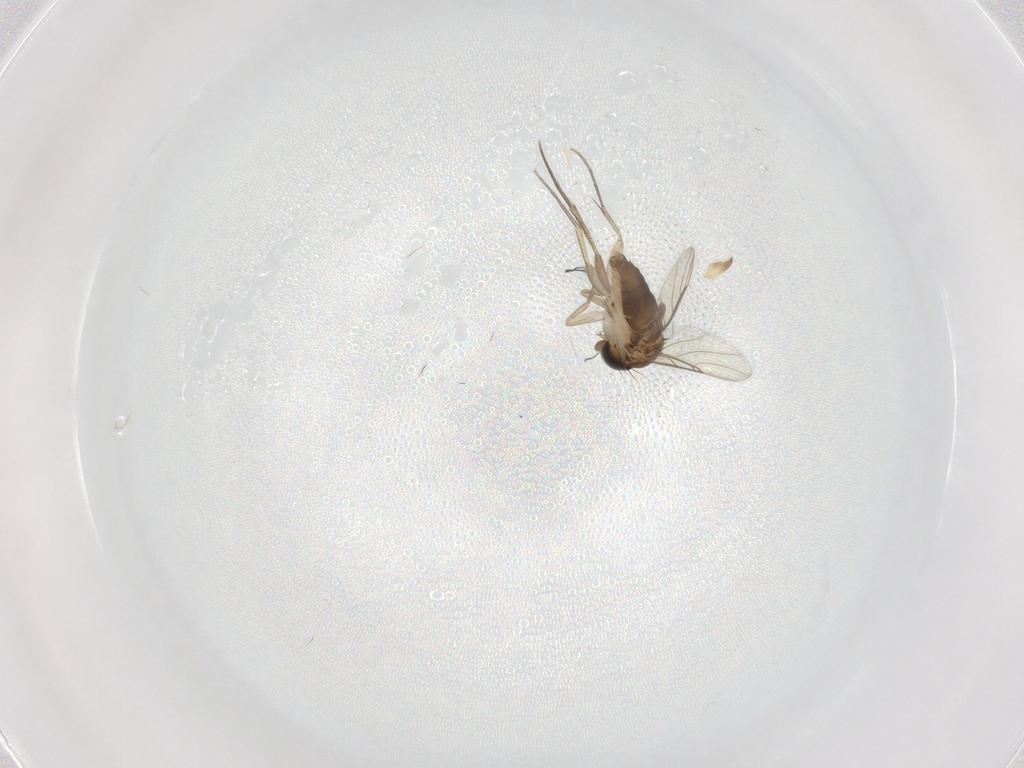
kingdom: Animalia
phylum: Arthropoda
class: Insecta
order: Diptera
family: Phoridae
